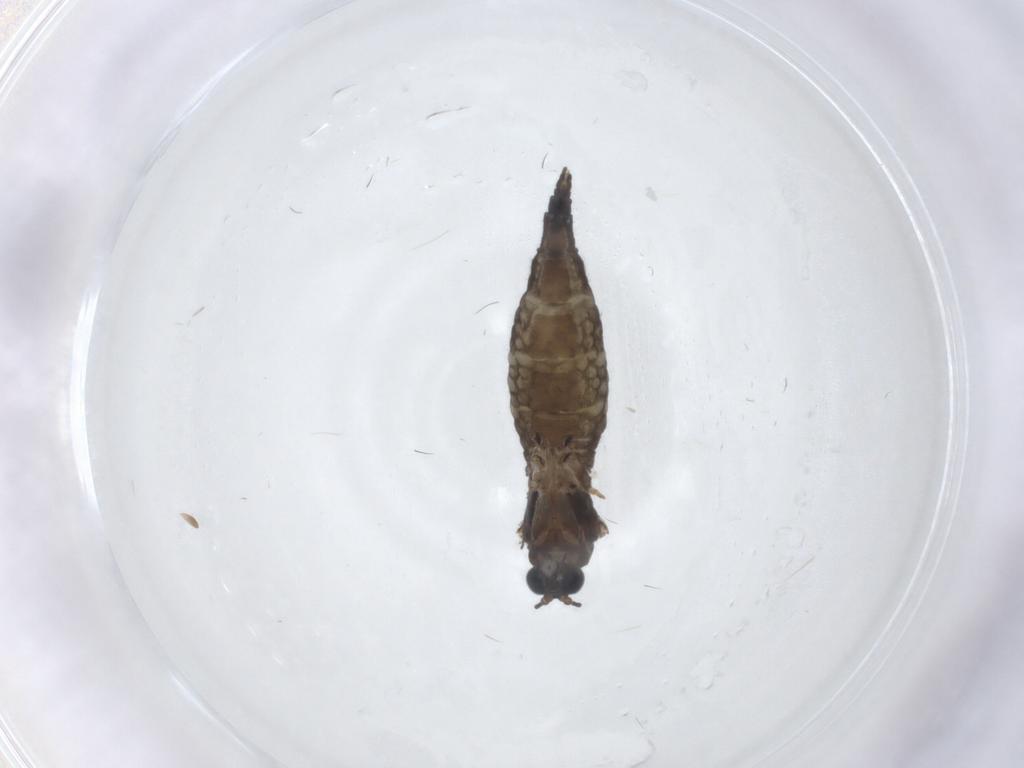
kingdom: Animalia
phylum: Arthropoda
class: Insecta
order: Diptera
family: Sciaridae
